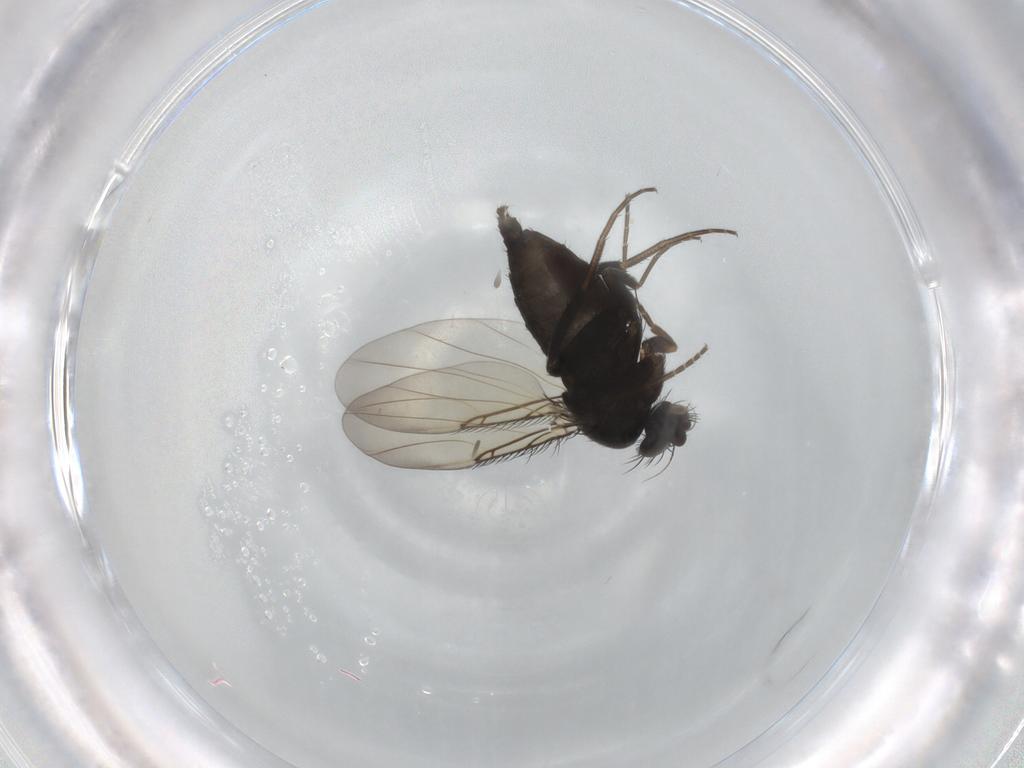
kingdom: Animalia
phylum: Arthropoda
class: Insecta
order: Diptera
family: Phoridae
